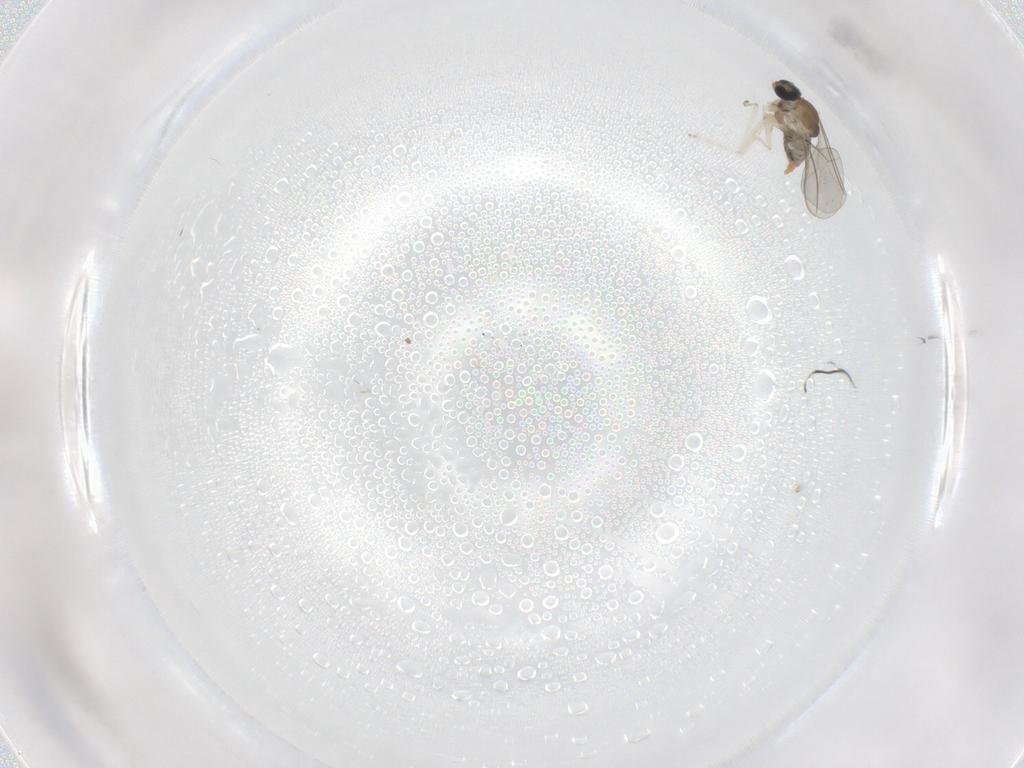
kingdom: Animalia
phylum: Arthropoda
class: Insecta
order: Diptera
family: Cecidomyiidae
